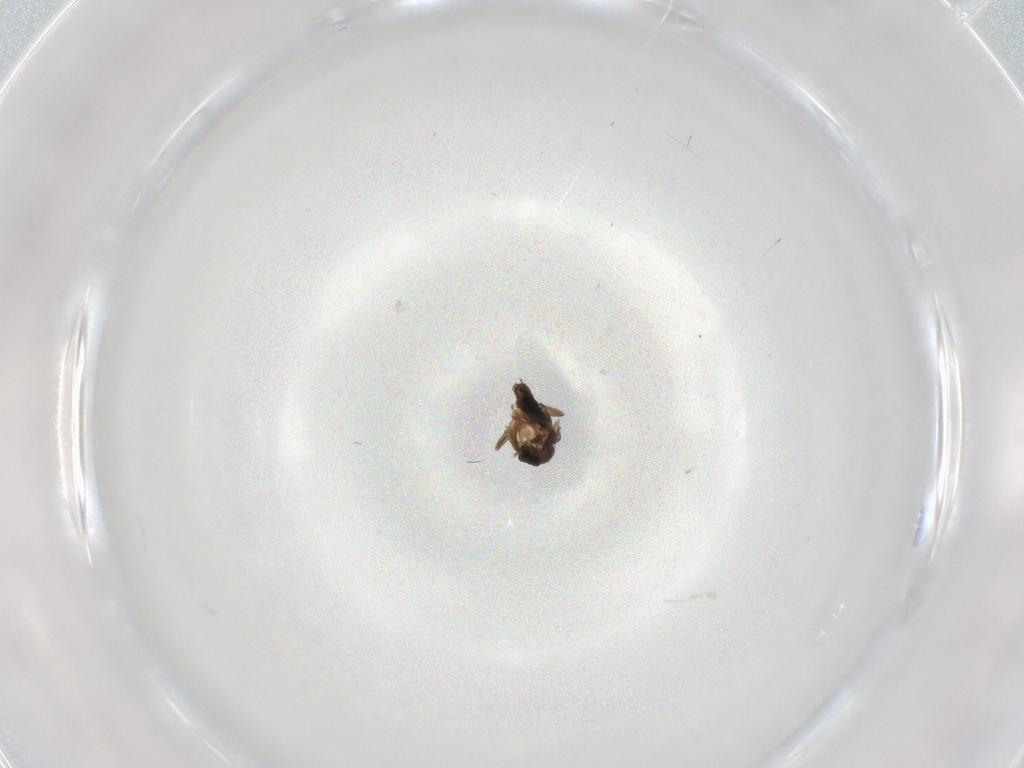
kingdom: Animalia
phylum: Arthropoda
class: Insecta
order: Diptera
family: Phoridae
